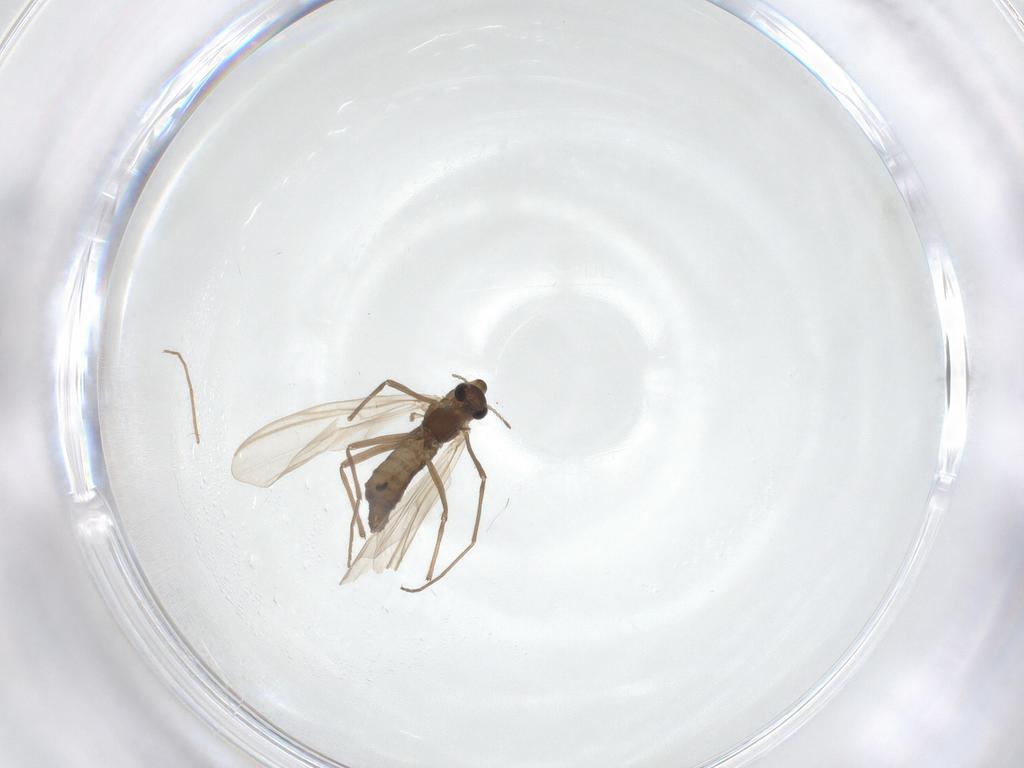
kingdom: Animalia
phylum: Arthropoda
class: Insecta
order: Diptera
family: Chironomidae
